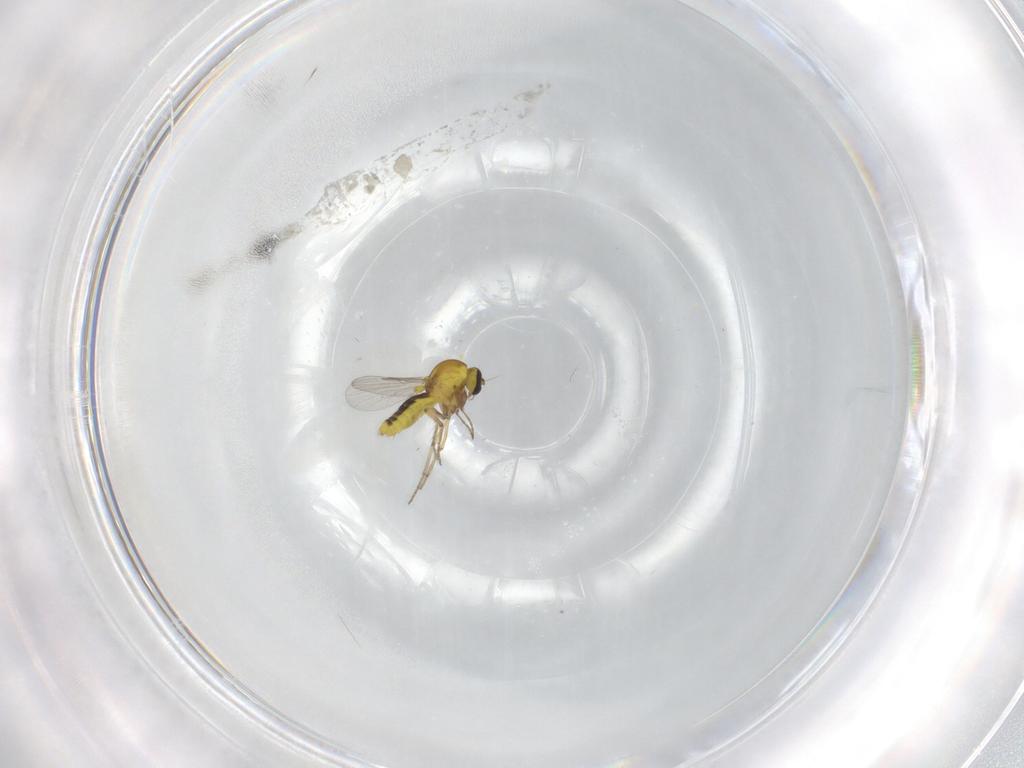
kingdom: Animalia
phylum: Arthropoda
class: Insecta
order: Diptera
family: Ceratopogonidae
